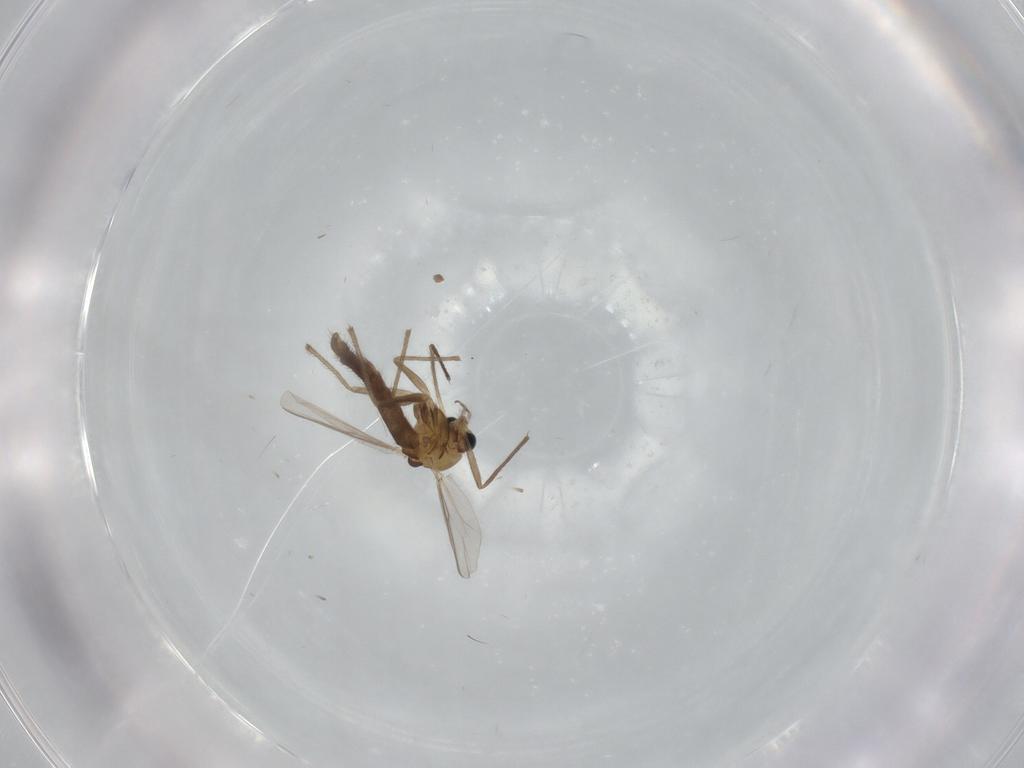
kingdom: Animalia
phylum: Arthropoda
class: Insecta
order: Diptera
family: Chironomidae
